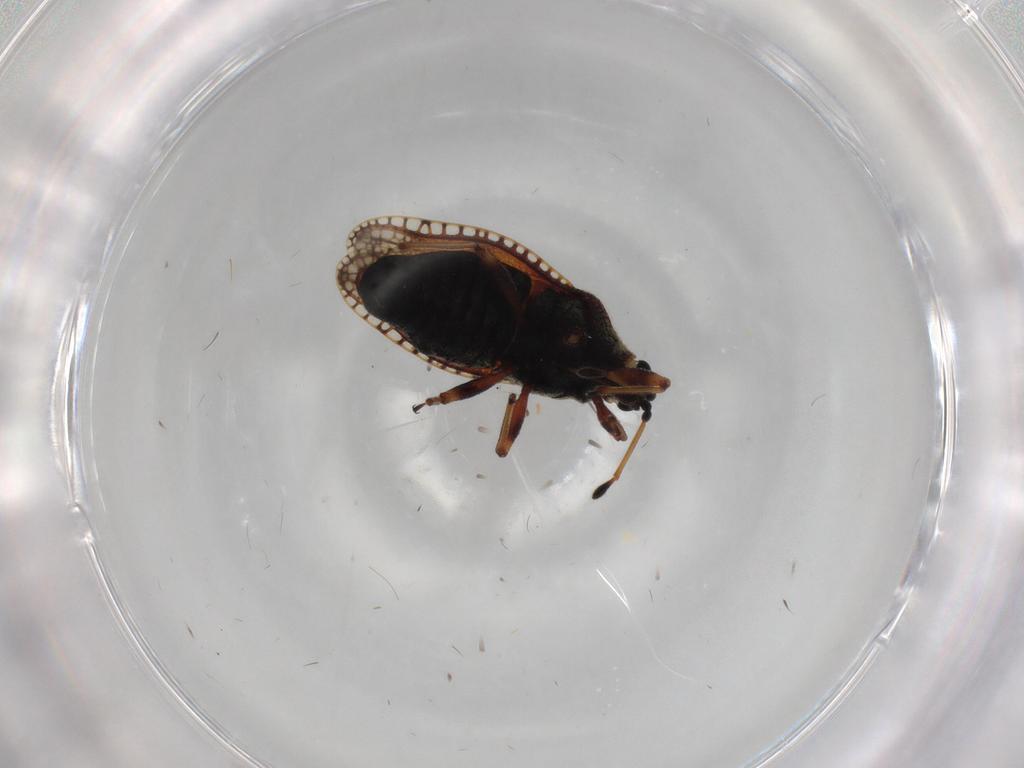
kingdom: Animalia
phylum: Arthropoda
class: Insecta
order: Hemiptera
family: Tingidae
